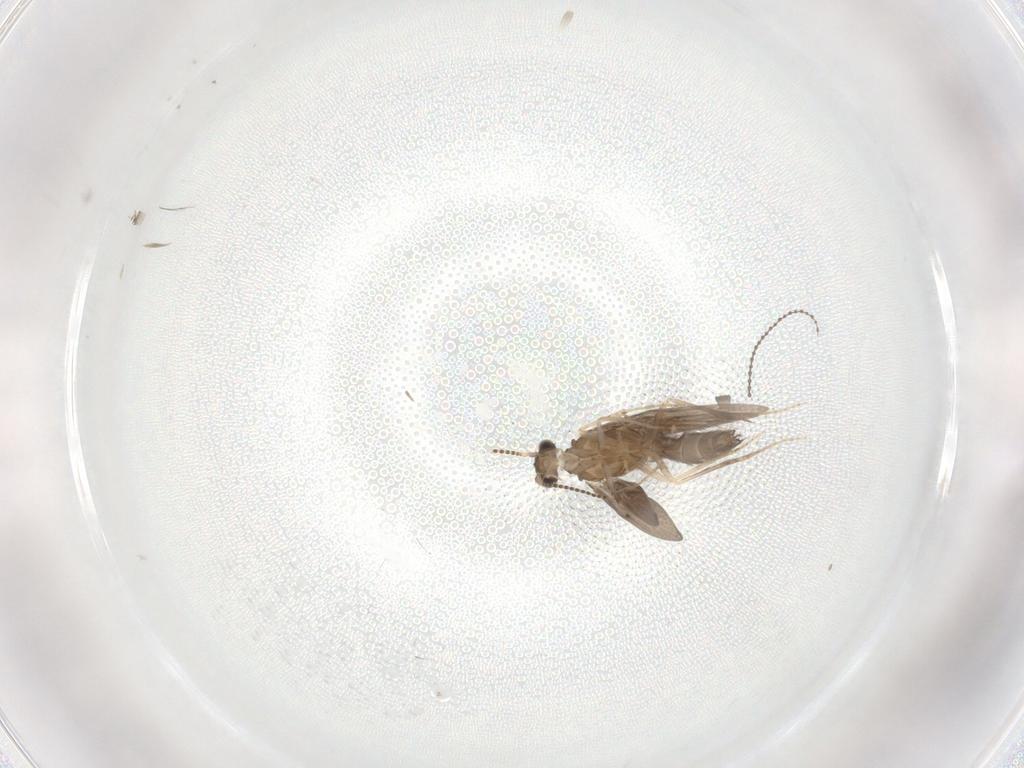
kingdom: Animalia
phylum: Arthropoda
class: Insecta
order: Trichoptera
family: Hydroptilidae
